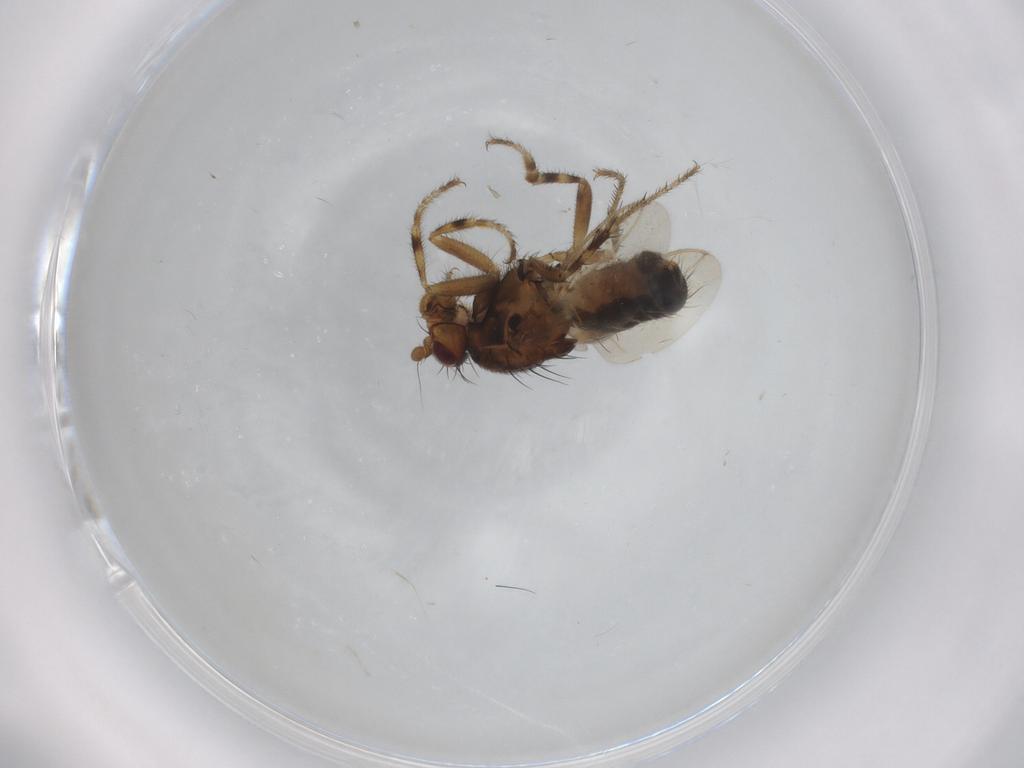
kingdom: Animalia
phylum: Arthropoda
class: Insecta
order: Diptera
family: Sphaeroceridae
